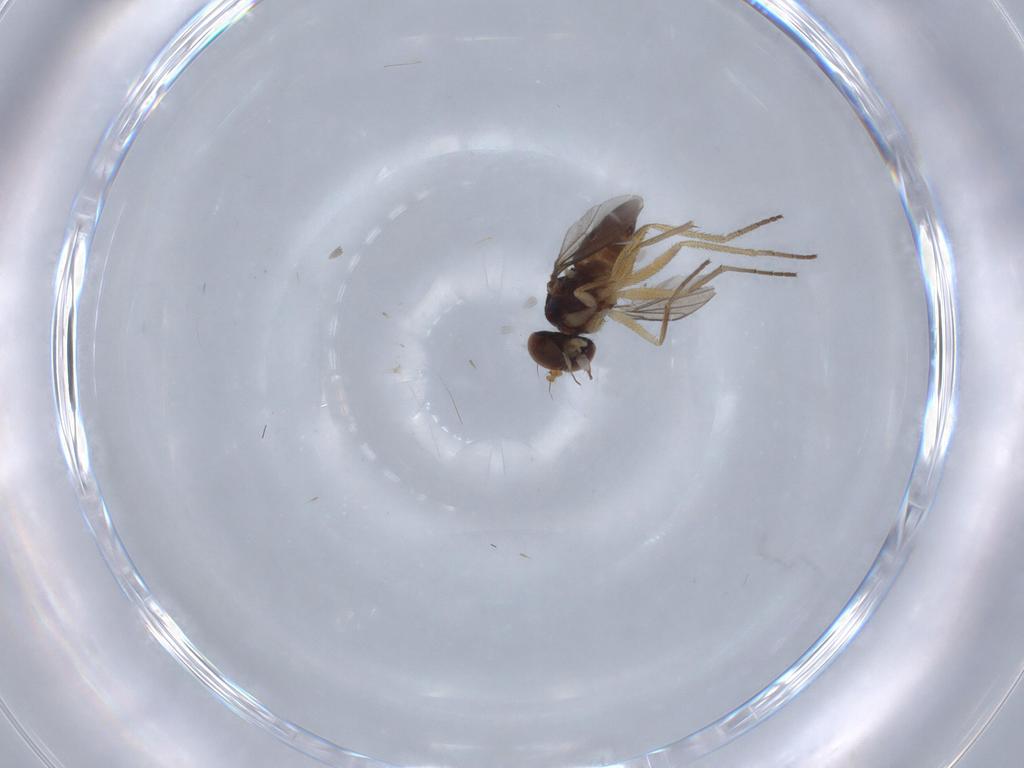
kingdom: Animalia
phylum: Arthropoda
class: Insecta
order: Diptera
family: Dolichopodidae
